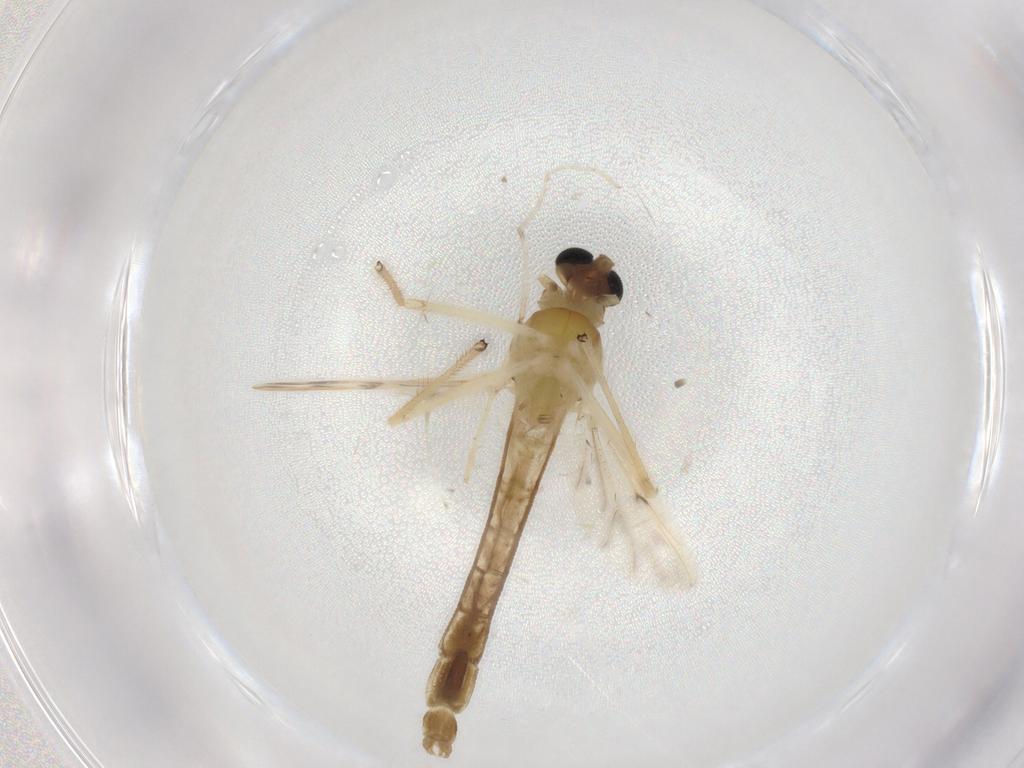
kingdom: Animalia
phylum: Arthropoda
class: Insecta
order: Diptera
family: Chironomidae
